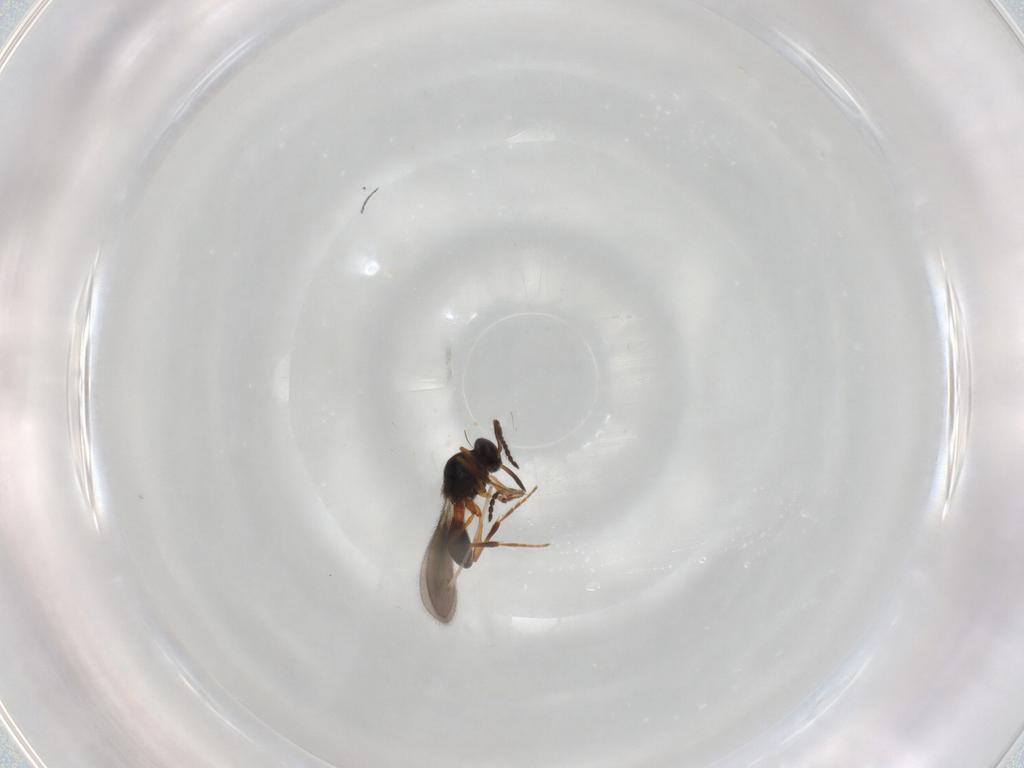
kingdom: Animalia
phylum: Arthropoda
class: Insecta
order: Hymenoptera
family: Platygastridae
